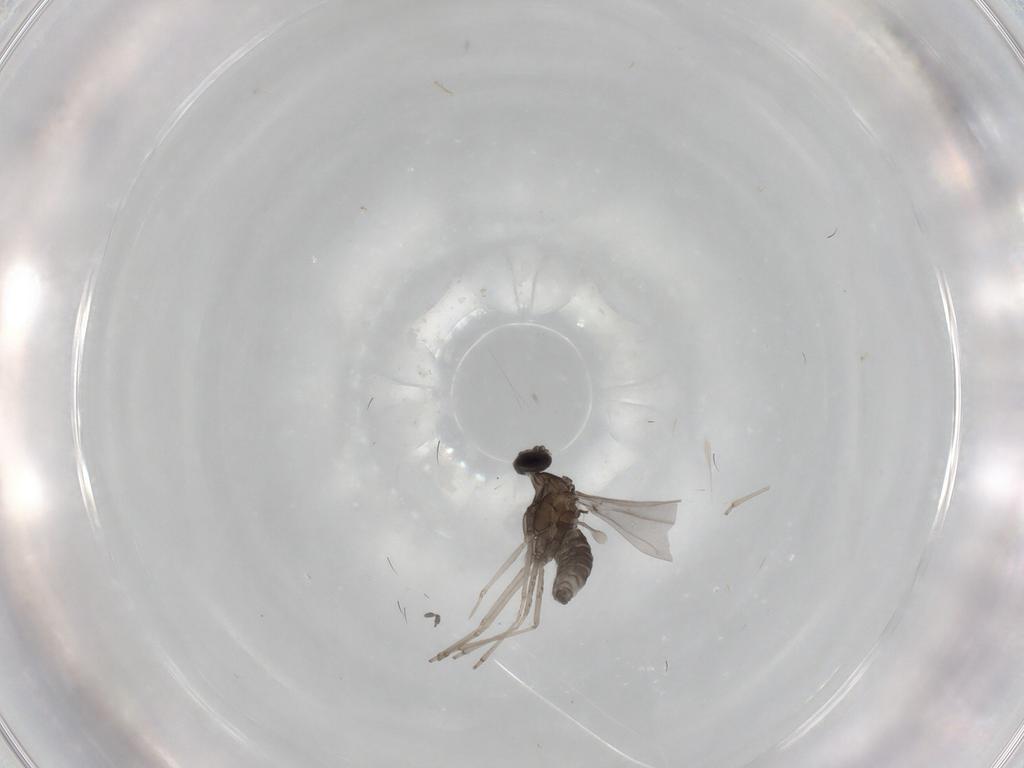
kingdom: Animalia
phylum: Arthropoda
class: Insecta
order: Diptera
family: Cecidomyiidae
